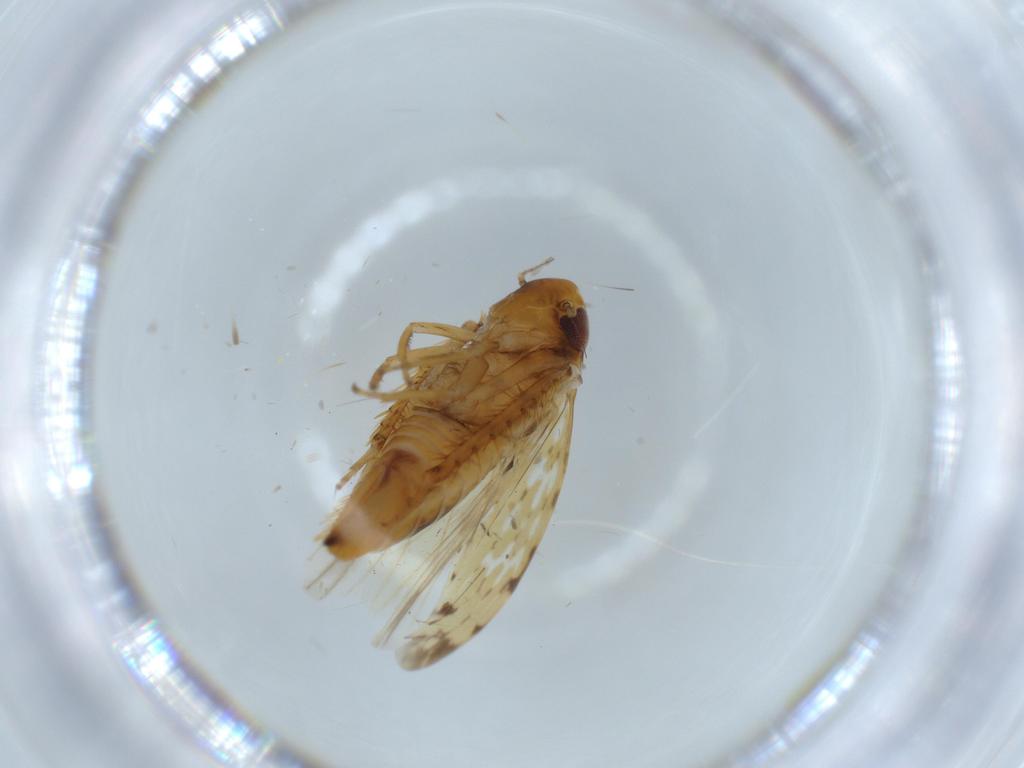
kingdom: Animalia
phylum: Arthropoda
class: Insecta
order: Hemiptera
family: Cicadellidae
